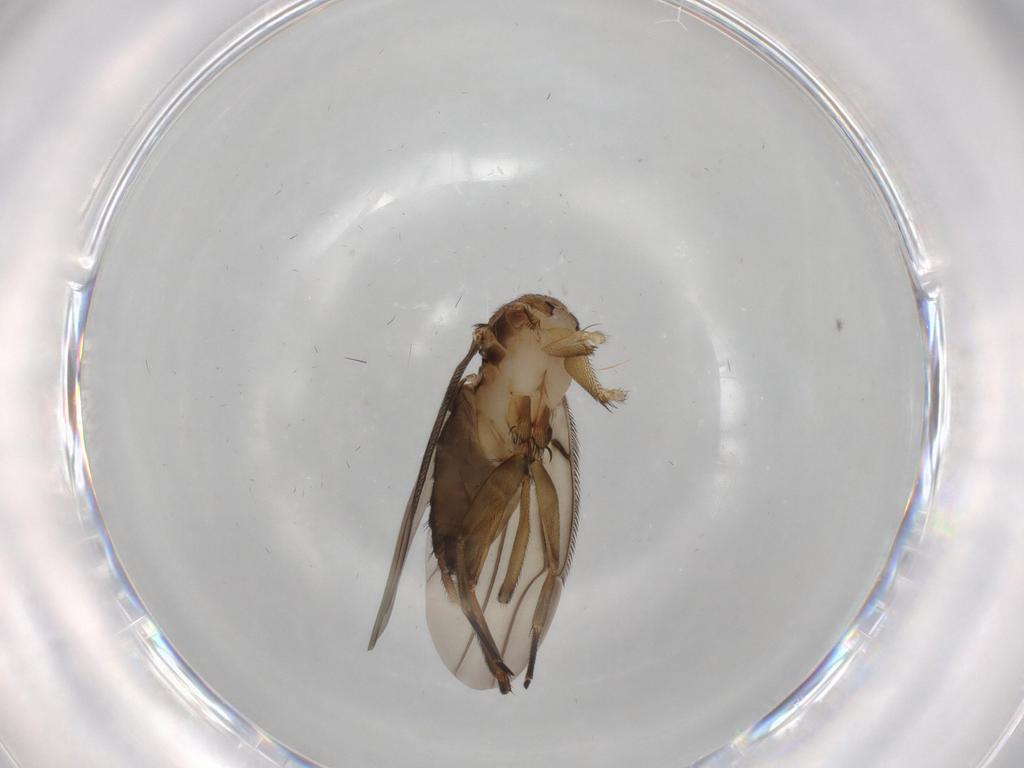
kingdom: Animalia
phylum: Arthropoda
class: Insecta
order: Diptera
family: Phoridae
